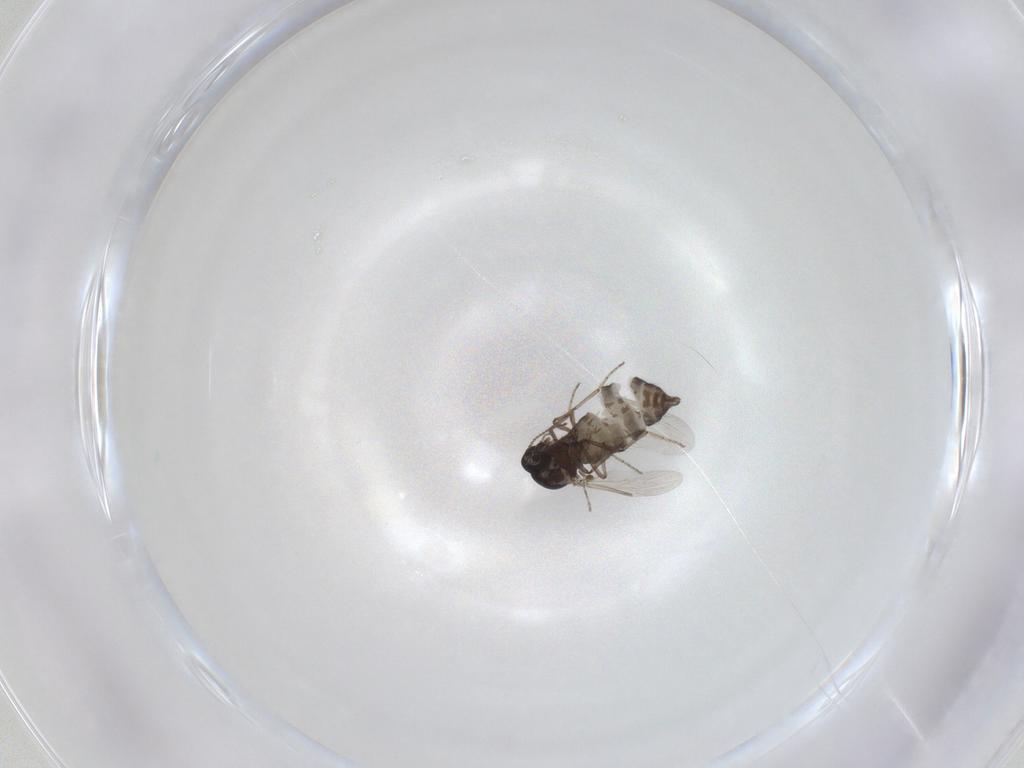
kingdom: Animalia
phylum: Arthropoda
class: Insecta
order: Diptera
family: Ceratopogonidae
